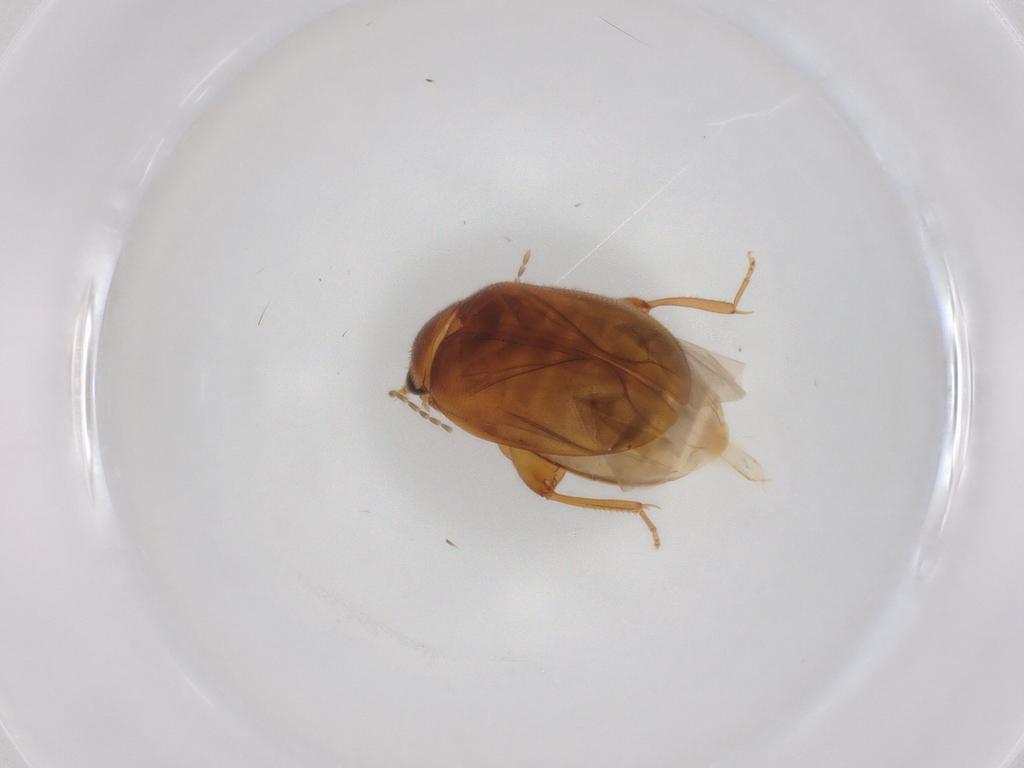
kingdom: Animalia
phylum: Arthropoda
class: Insecta
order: Coleoptera
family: Scirtidae
